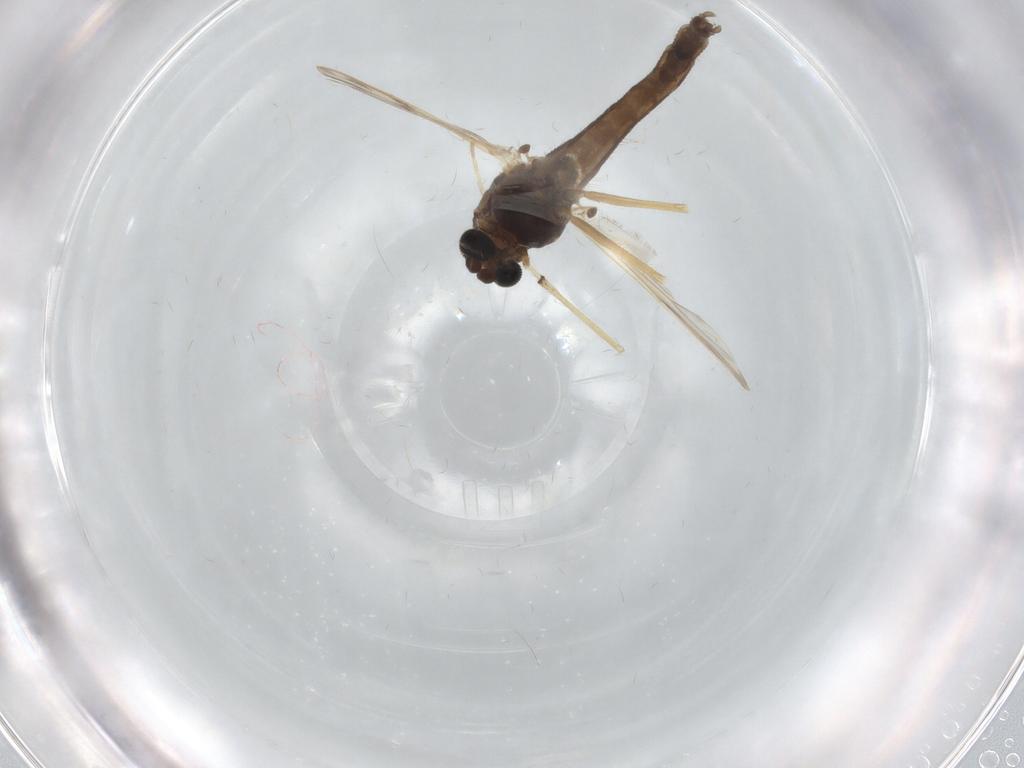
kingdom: Animalia
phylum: Arthropoda
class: Insecta
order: Diptera
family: Chironomidae
